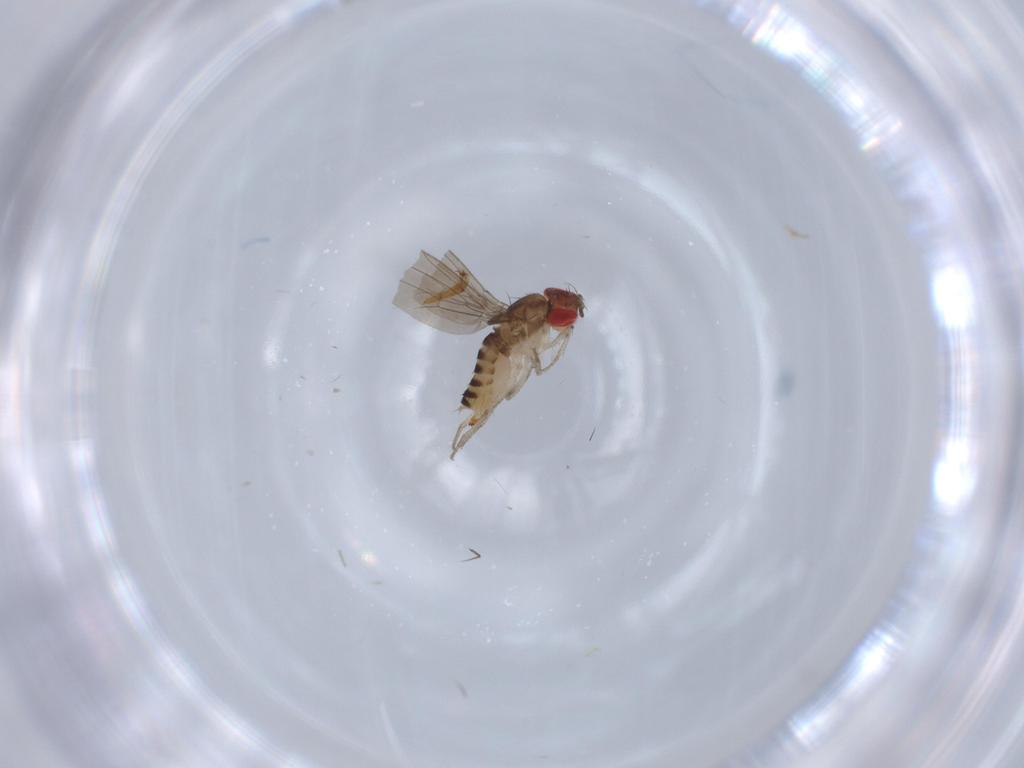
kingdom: Animalia
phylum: Arthropoda
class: Insecta
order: Diptera
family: Drosophilidae
